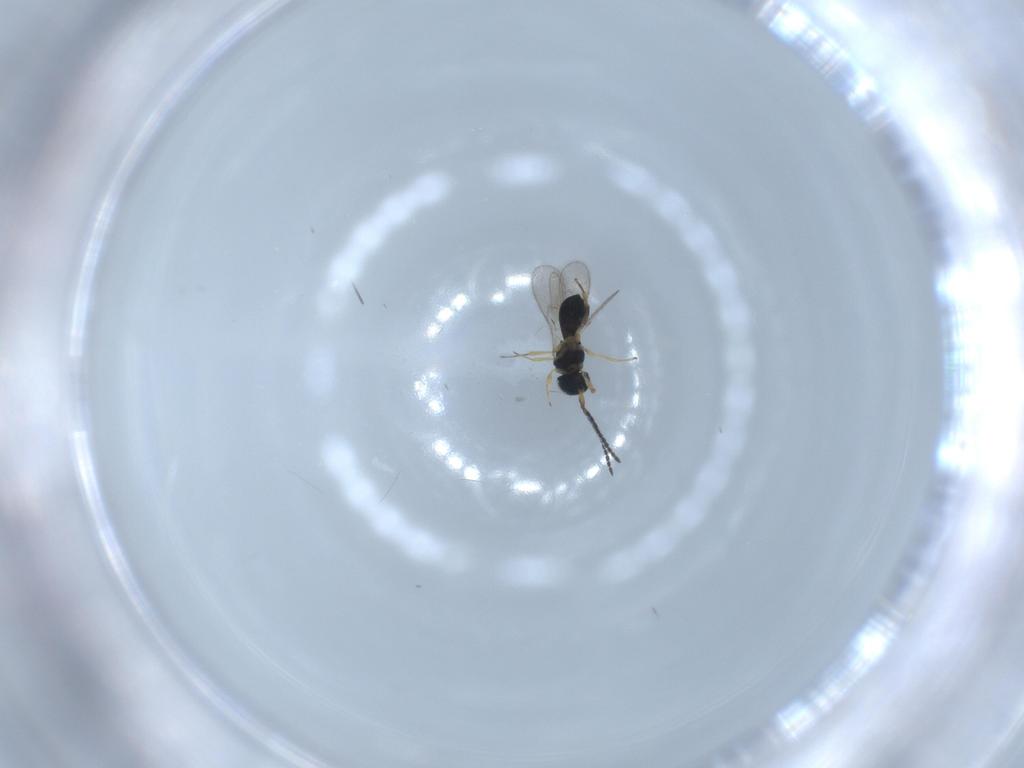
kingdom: Animalia
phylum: Arthropoda
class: Insecta
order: Hymenoptera
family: Scelionidae
